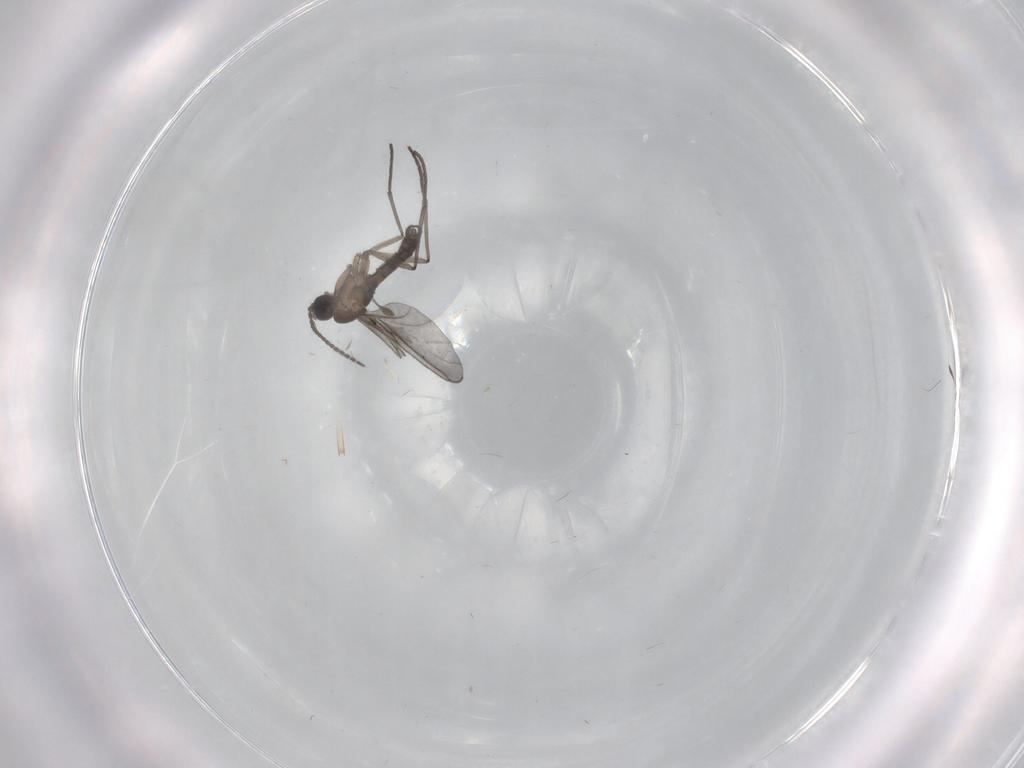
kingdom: Animalia
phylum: Arthropoda
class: Insecta
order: Diptera
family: Sciaridae
